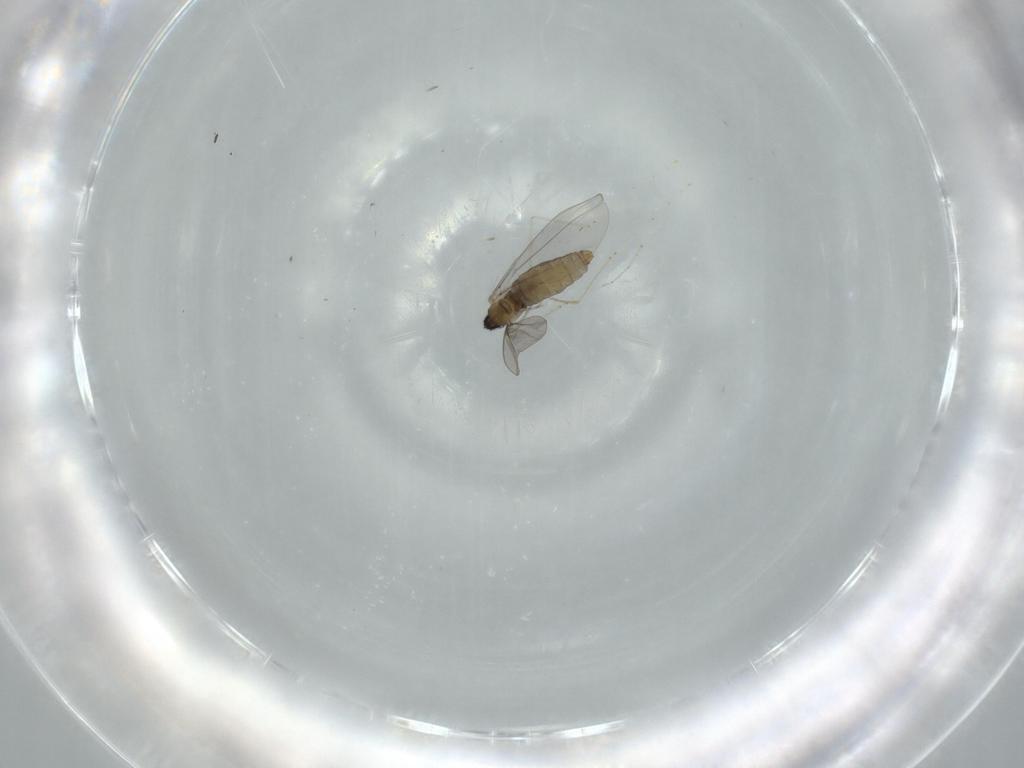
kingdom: Animalia
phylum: Arthropoda
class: Insecta
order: Diptera
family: Cecidomyiidae
